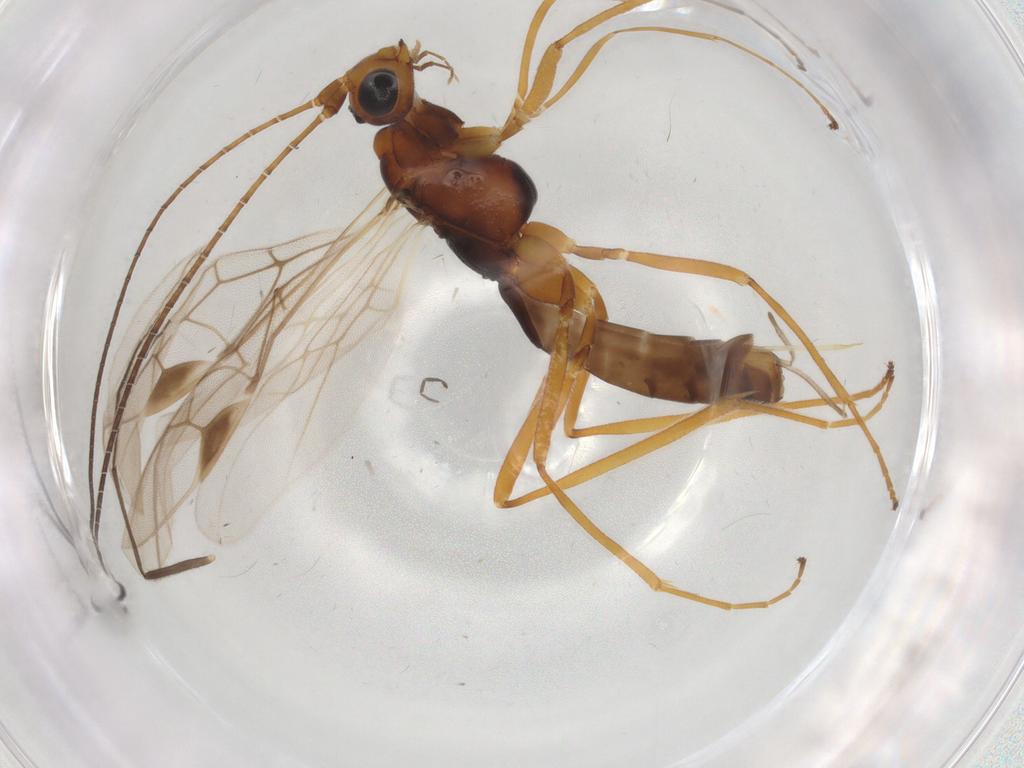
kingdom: Animalia
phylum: Arthropoda
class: Insecta
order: Hymenoptera
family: Braconidae
